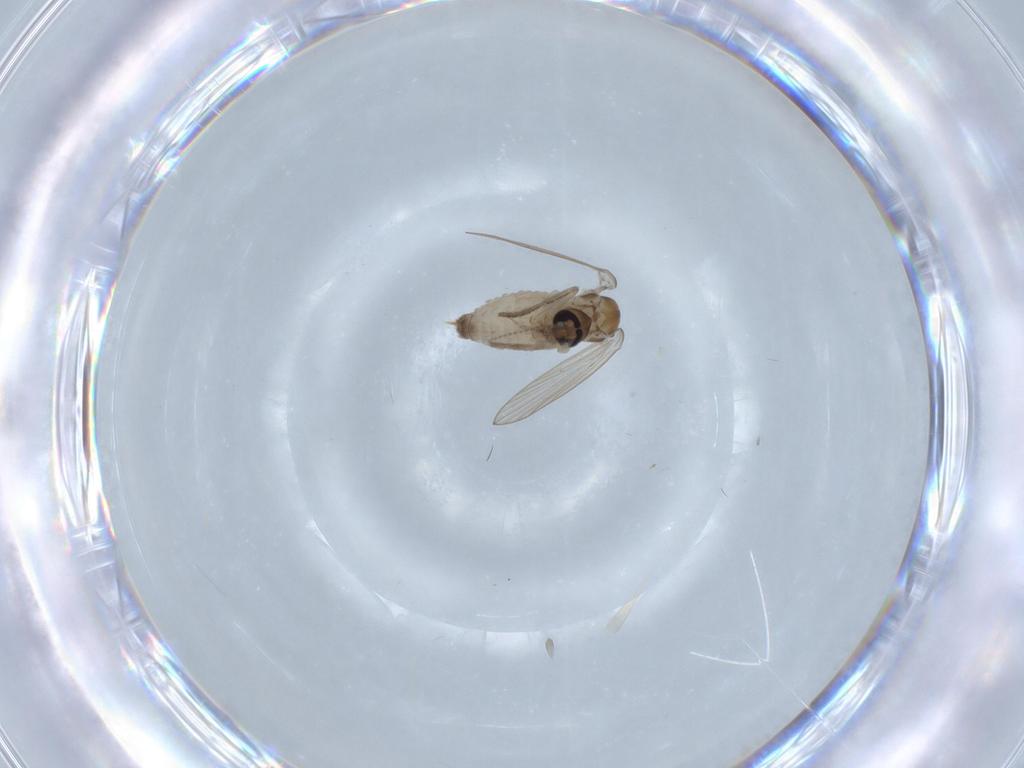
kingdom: Animalia
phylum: Arthropoda
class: Insecta
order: Diptera
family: Psychodidae
